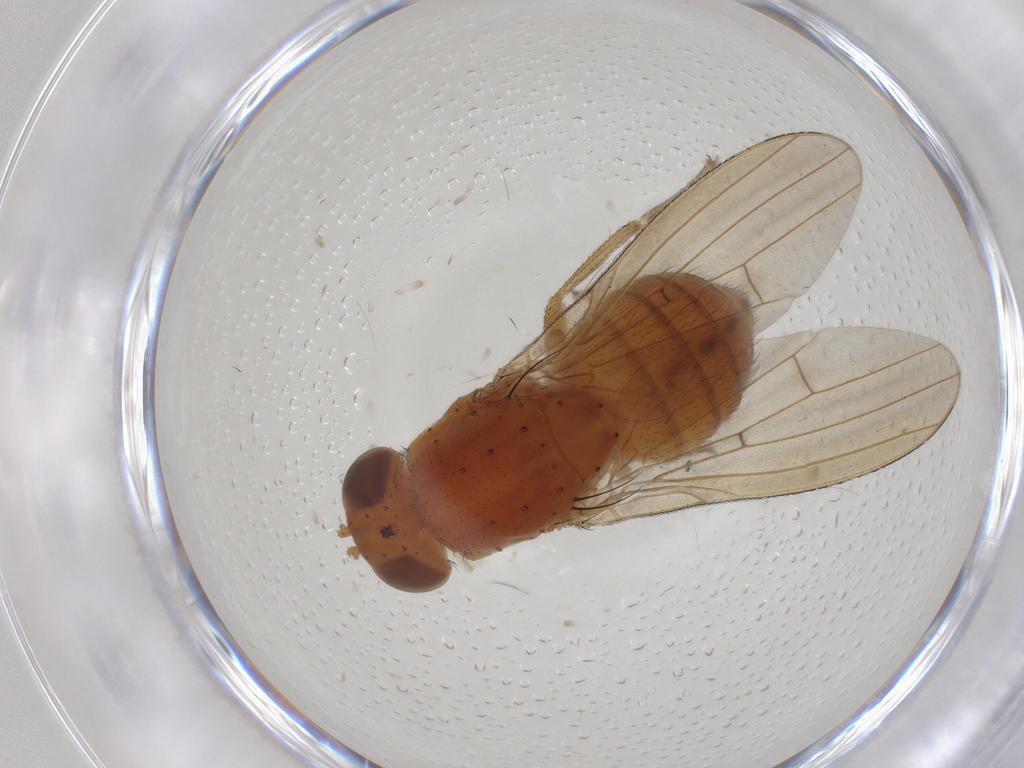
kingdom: Animalia
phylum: Arthropoda
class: Insecta
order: Diptera
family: Cecidomyiidae
